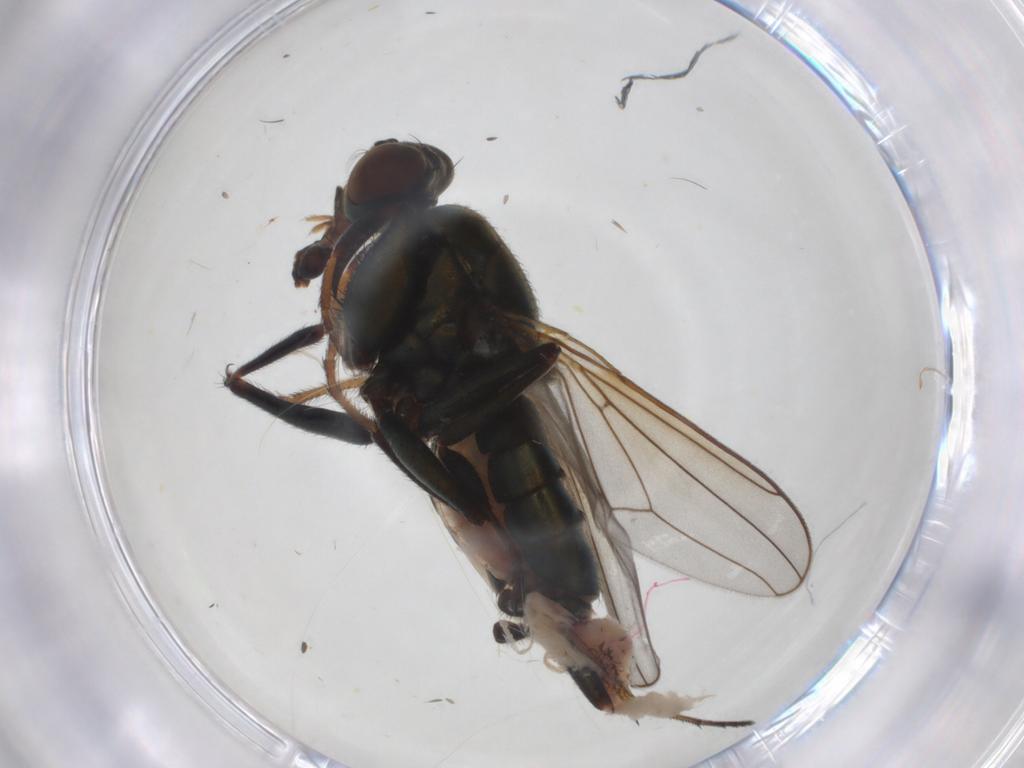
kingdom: Animalia
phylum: Arthropoda
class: Insecta
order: Diptera
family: Ephydridae
